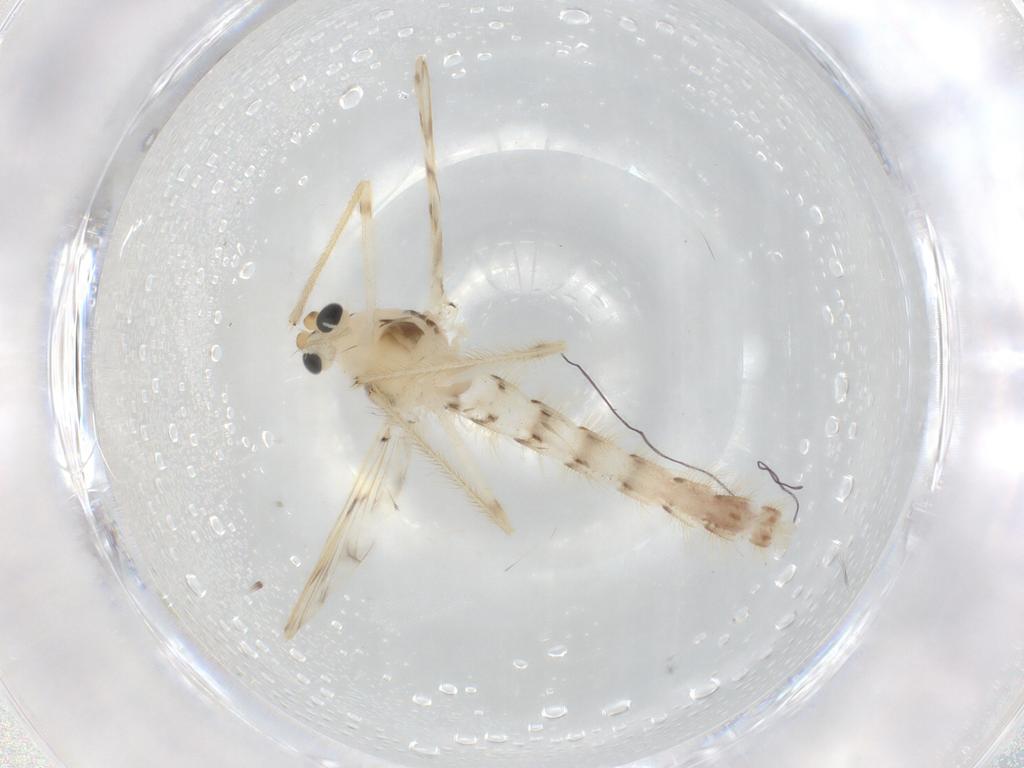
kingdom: Animalia
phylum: Arthropoda
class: Insecta
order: Diptera
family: Chironomidae
